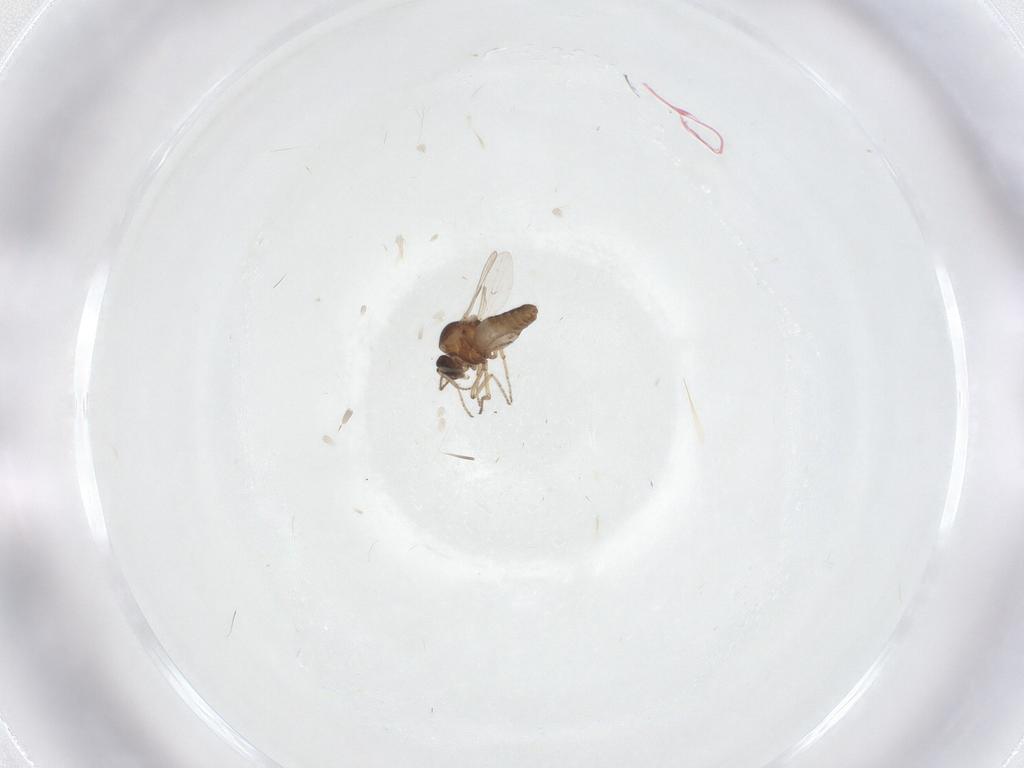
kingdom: Animalia
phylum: Arthropoda
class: Insecta
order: Diptera
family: Ceratopogonidae
